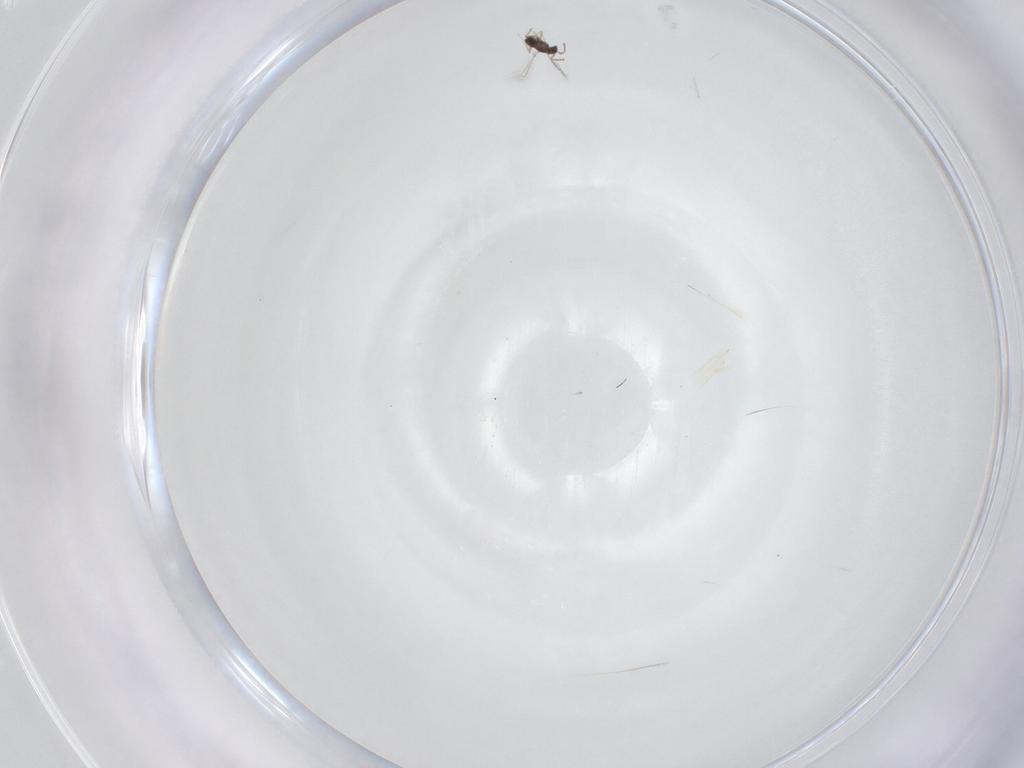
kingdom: Animalia
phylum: Arthropoda
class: Insecta
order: Hymenoptera
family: Mymaridae
